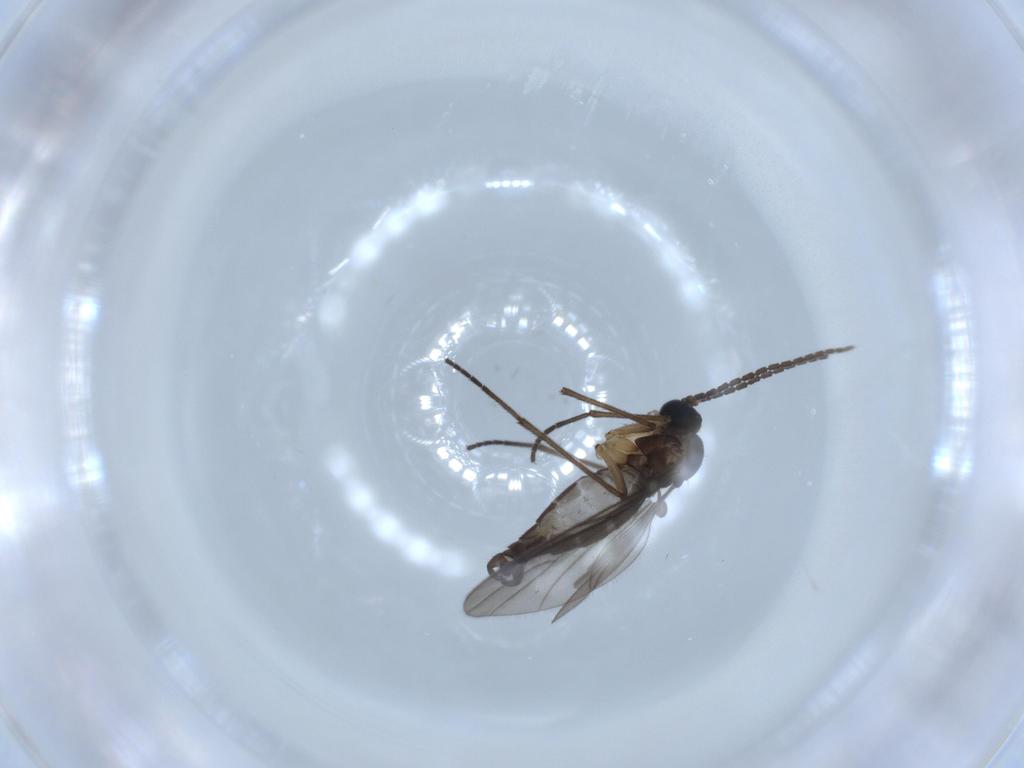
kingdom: Animalia
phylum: Arthropoda
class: Insecta
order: Diptera
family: Sciaridae
